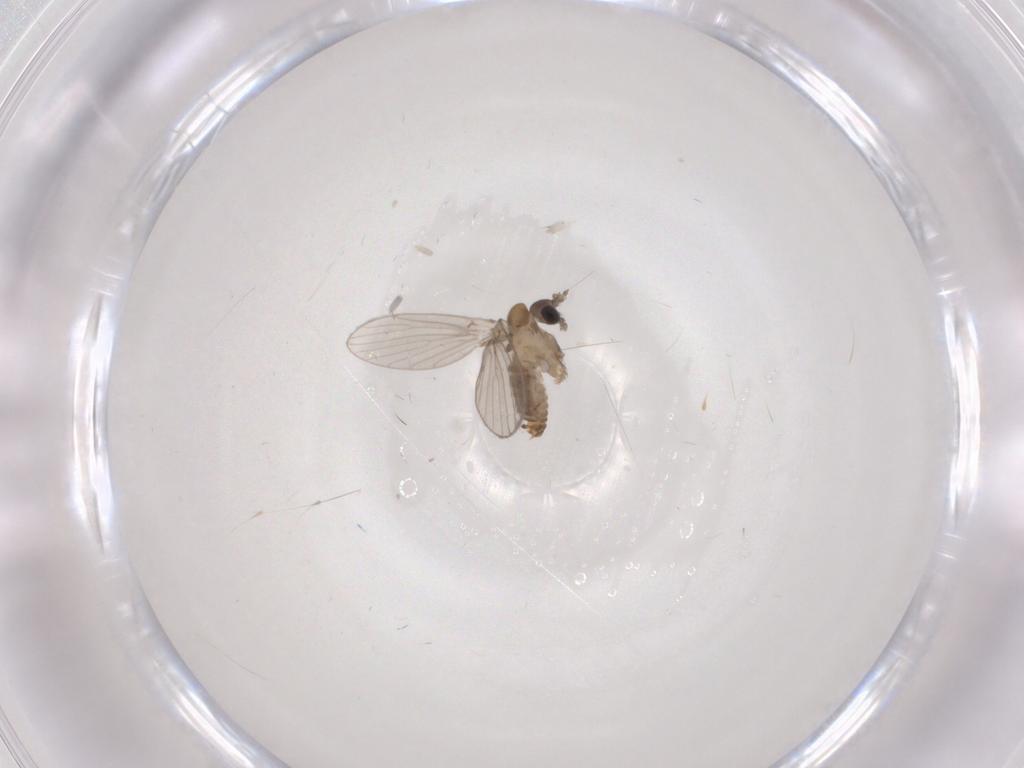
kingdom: Animalia
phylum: Arthropoda
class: Insecta
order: Diptera
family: Psychodidae
